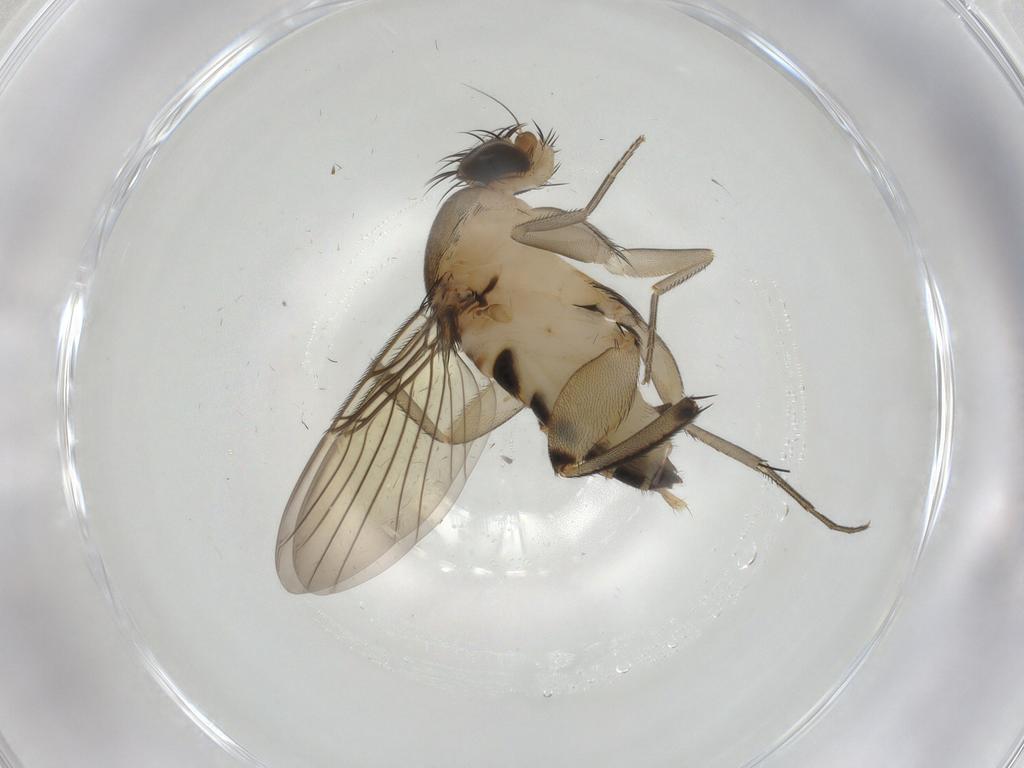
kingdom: Animalia
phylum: Arthropoda
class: Insecta
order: Diptera
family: Phoridae
